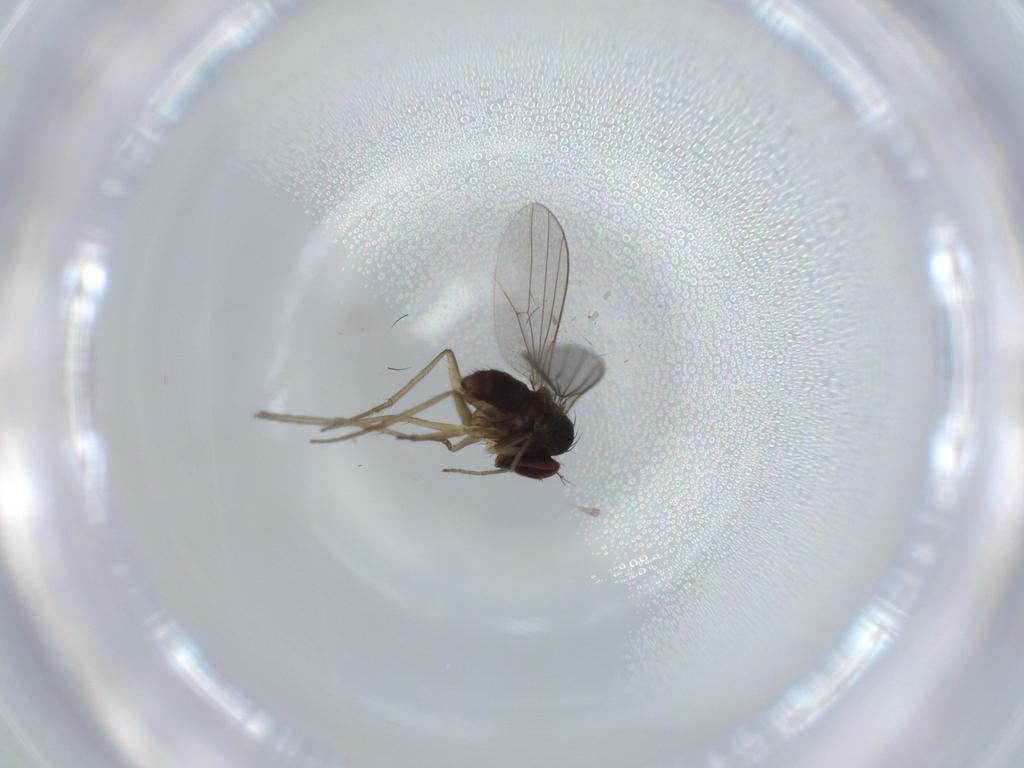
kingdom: Animalia
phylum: Arthropoda
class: Insecta
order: Diptera
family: Dolichopodidae
